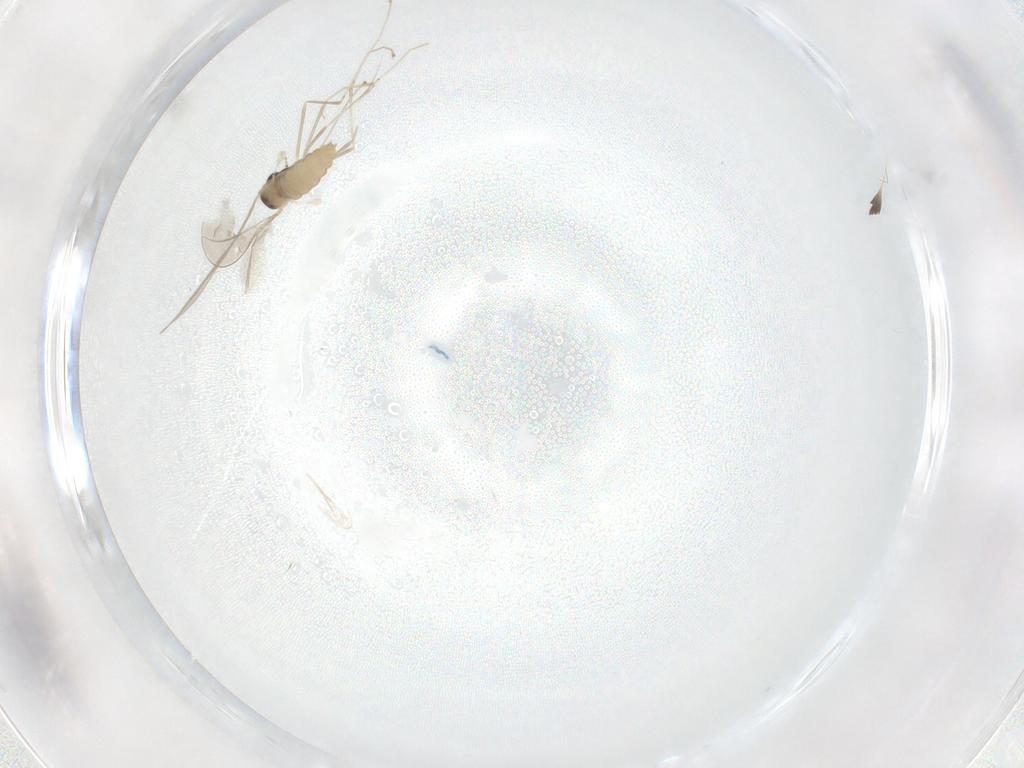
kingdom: Animalia
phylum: Arthropoda
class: Insecta
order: Diptera
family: Cecidomyiidae
